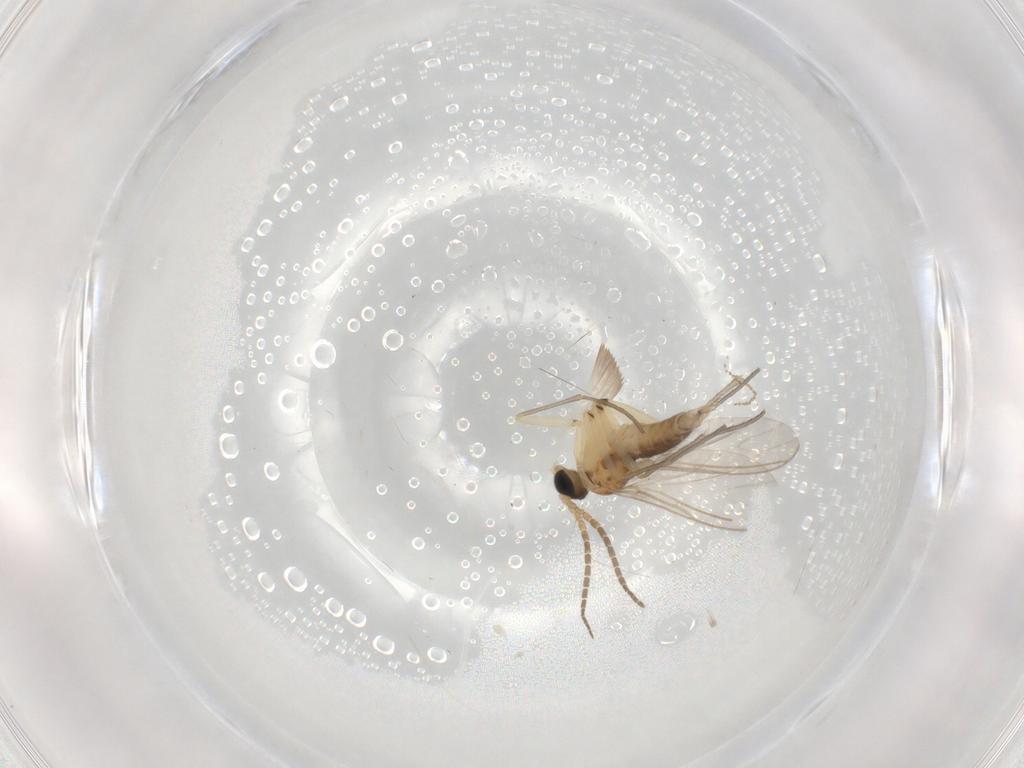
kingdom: Animalia
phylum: Arthropoda
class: Insecta
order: Diptera
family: Sciaridae
